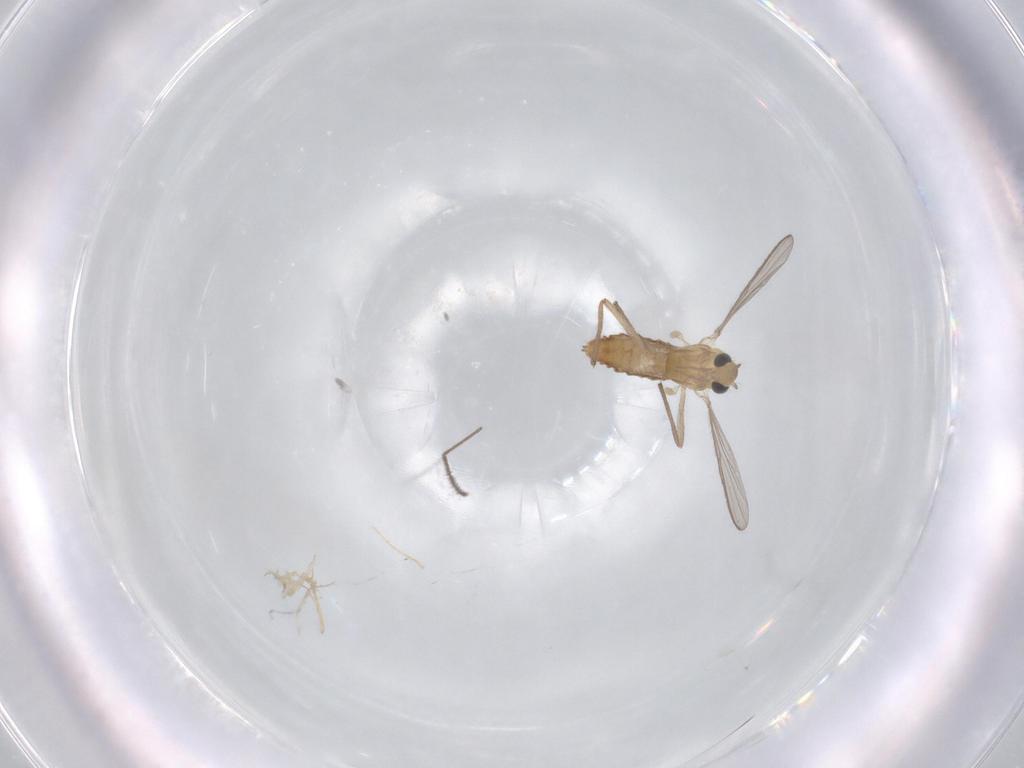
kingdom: Animalia
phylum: Arthropoda
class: Insecta
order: Diptera
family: Chironomidae
